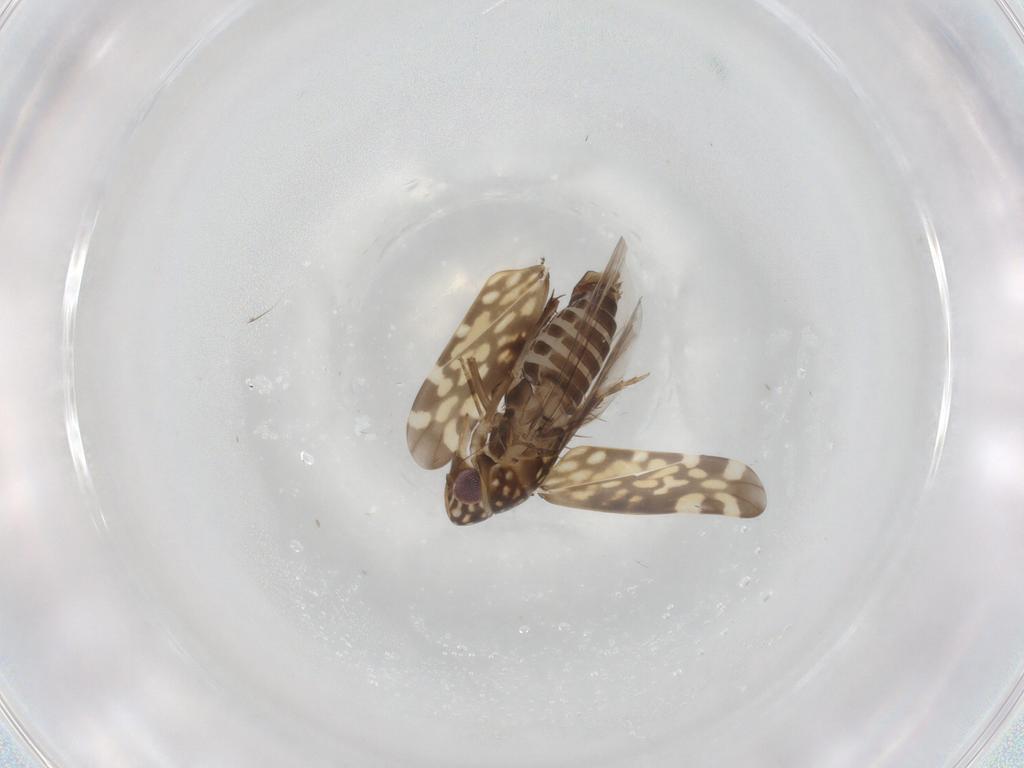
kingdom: Animalia
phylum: Arthropoda
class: Insecta
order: Hemiptera
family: Cicadellidae
